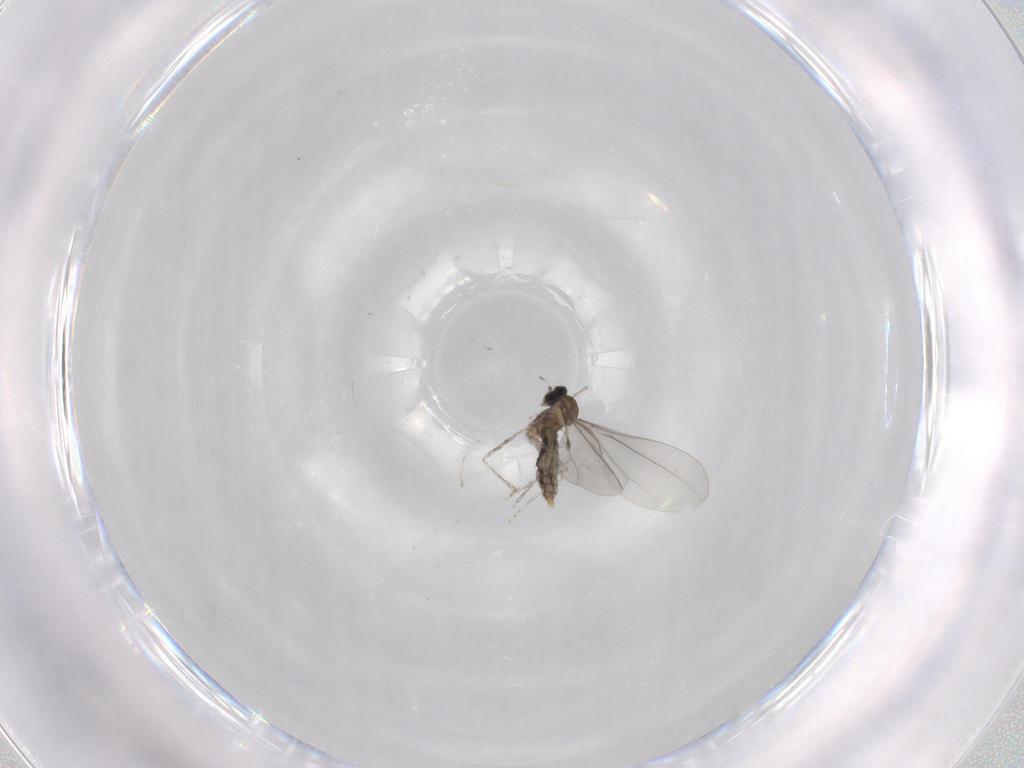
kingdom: Animalia
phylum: Arthropoda
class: Insecta
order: Diptera
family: Cecidomyiidae
